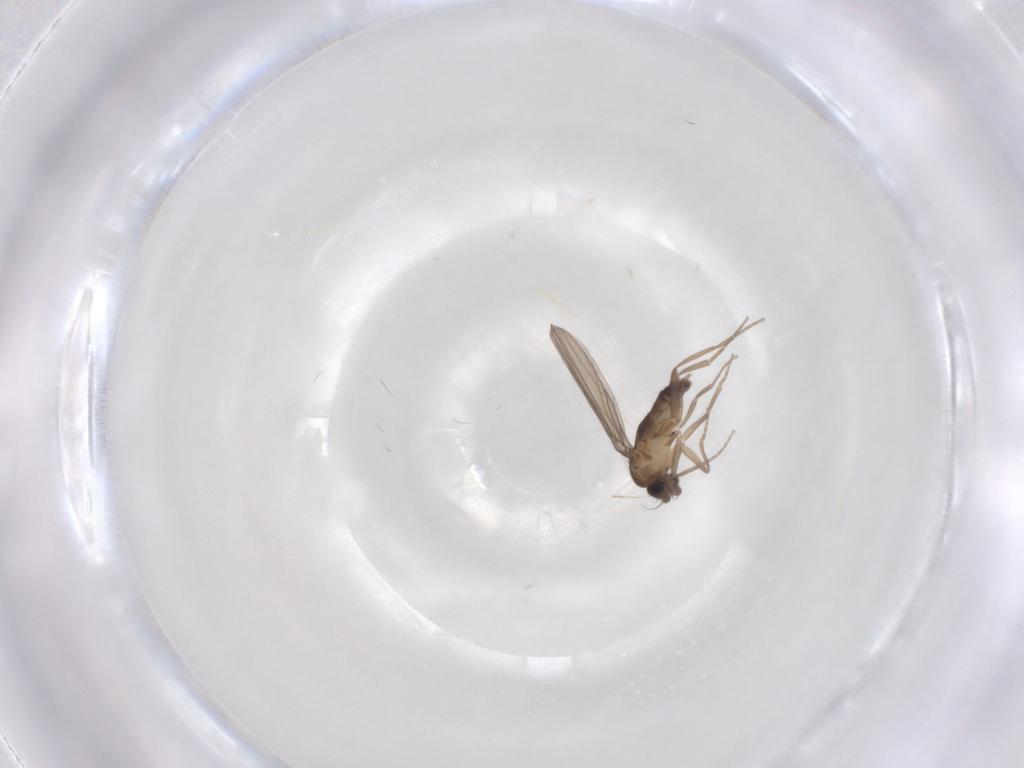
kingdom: Animalia
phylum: Arthropoda
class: Insecta
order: Diptera
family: Phoridae
